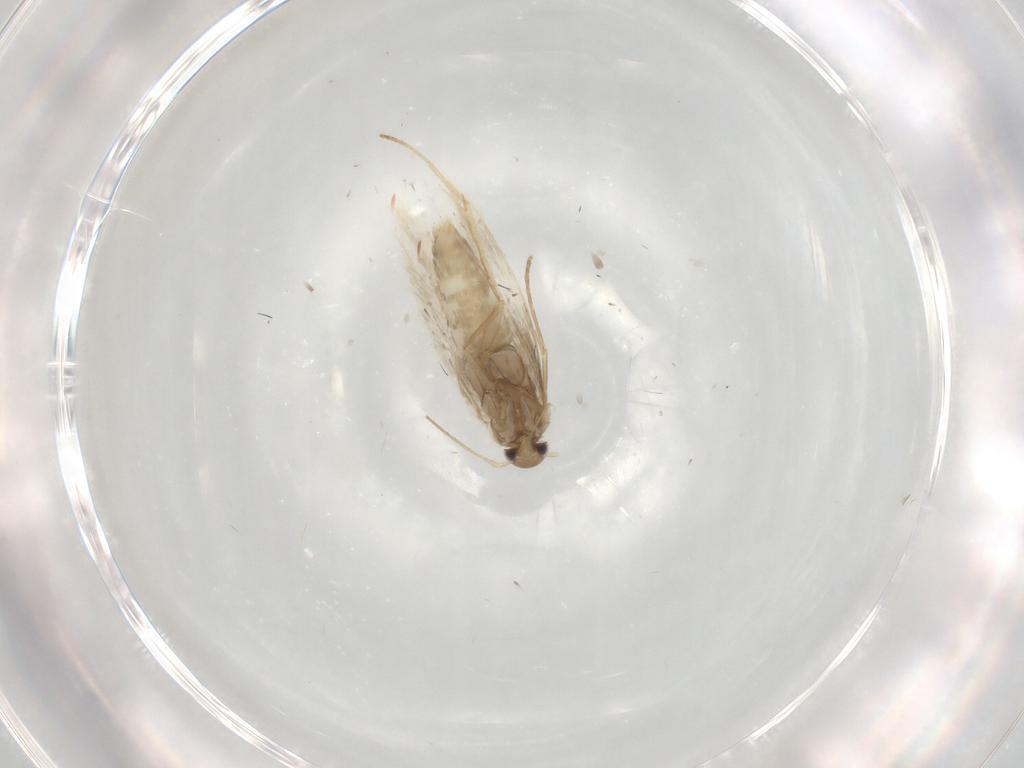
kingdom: Animalia
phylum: Arthropoda
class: Insecta
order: Lepidoptera
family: Gracillariidae
